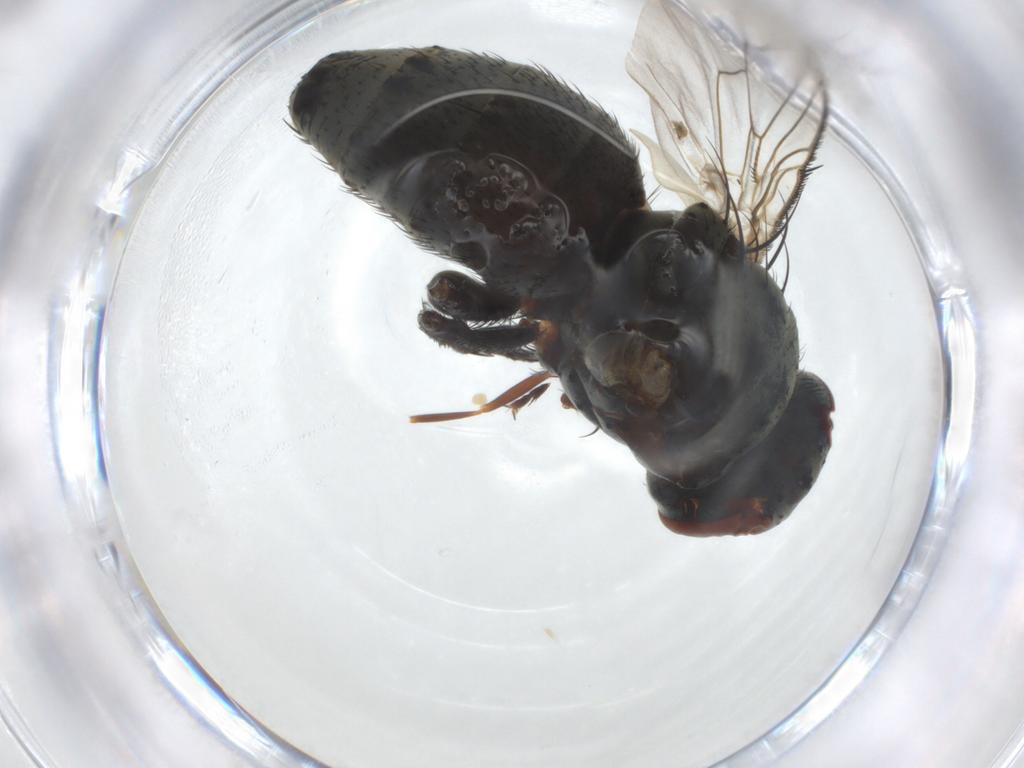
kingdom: Animalia
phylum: Arthropoda
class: Insecta
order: Diptera
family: Sarcophagidae
